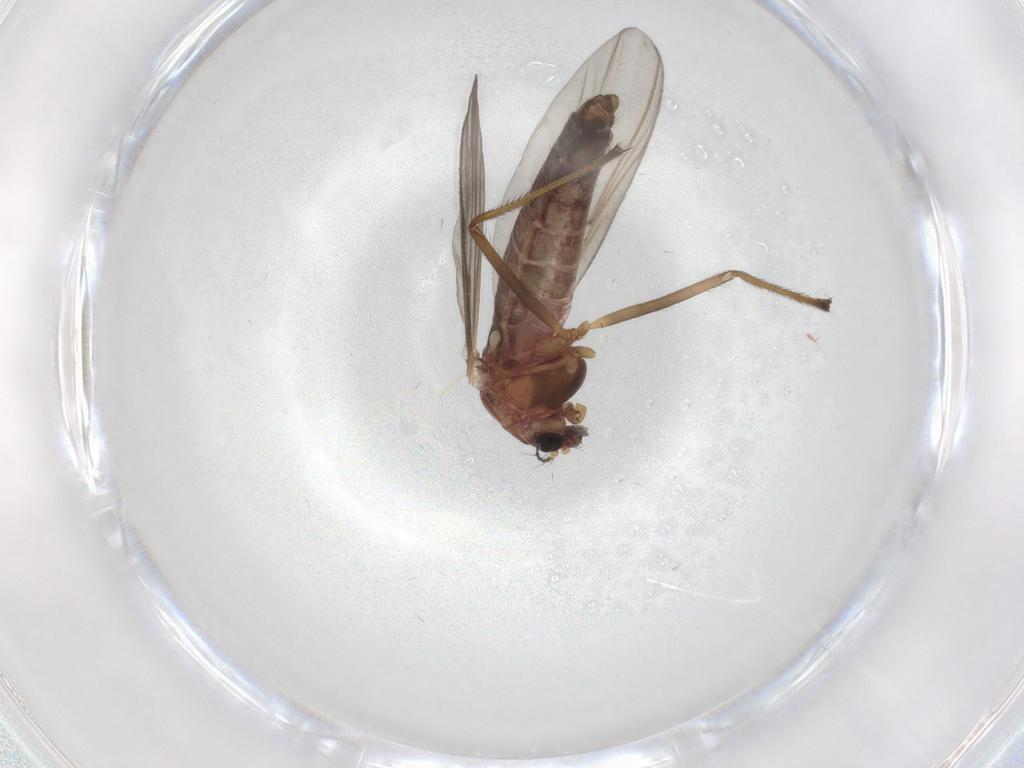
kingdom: Animalia
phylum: Arthropoda
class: Insecta
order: Diptera
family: Chironomidae
